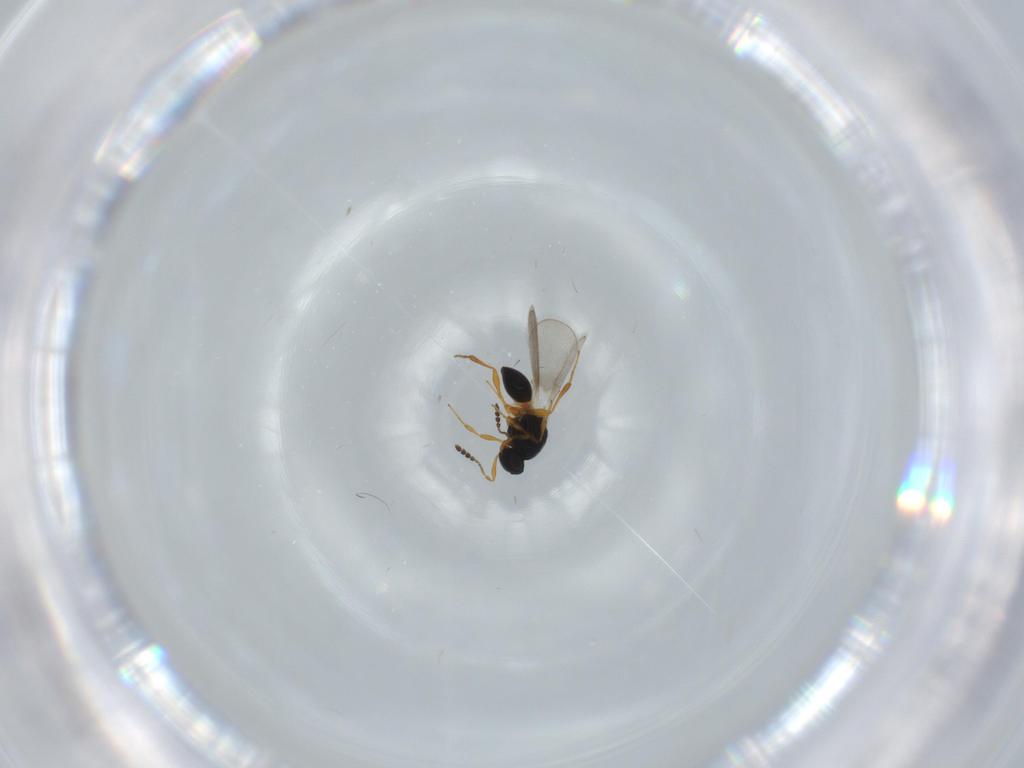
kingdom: Animalia
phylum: Arthropoda
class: Insecta
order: Hymenoptera
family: Platygastridae
